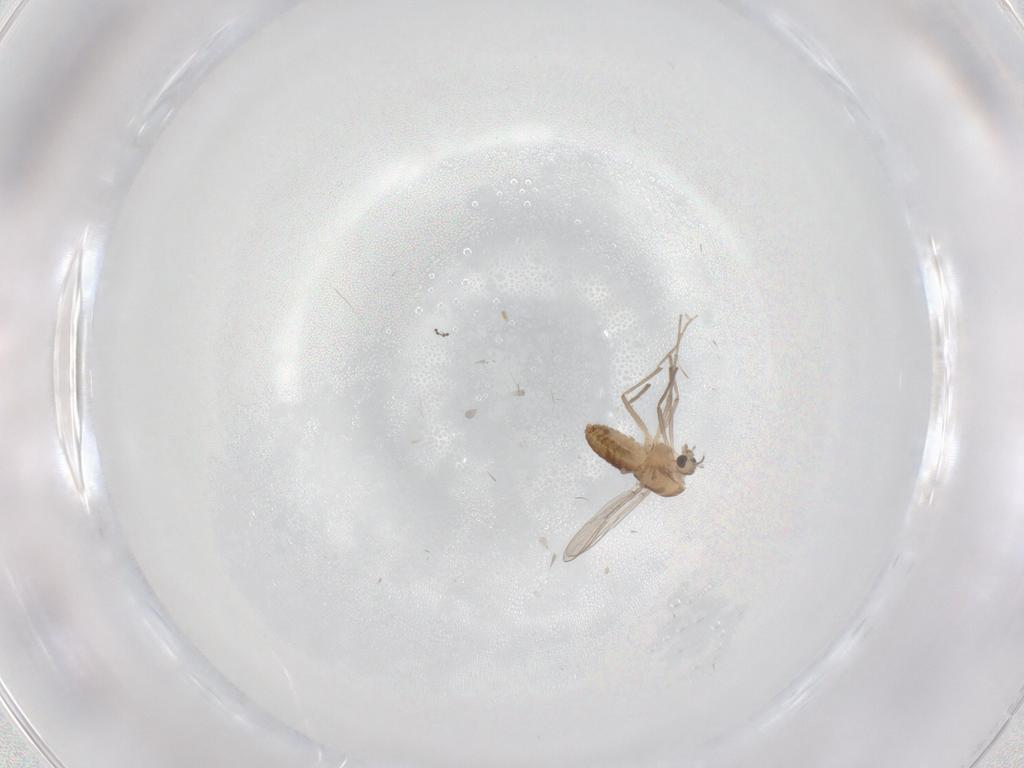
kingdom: Animalia
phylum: Arthropoda
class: Insecta
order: Diptera
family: Chironomidae
